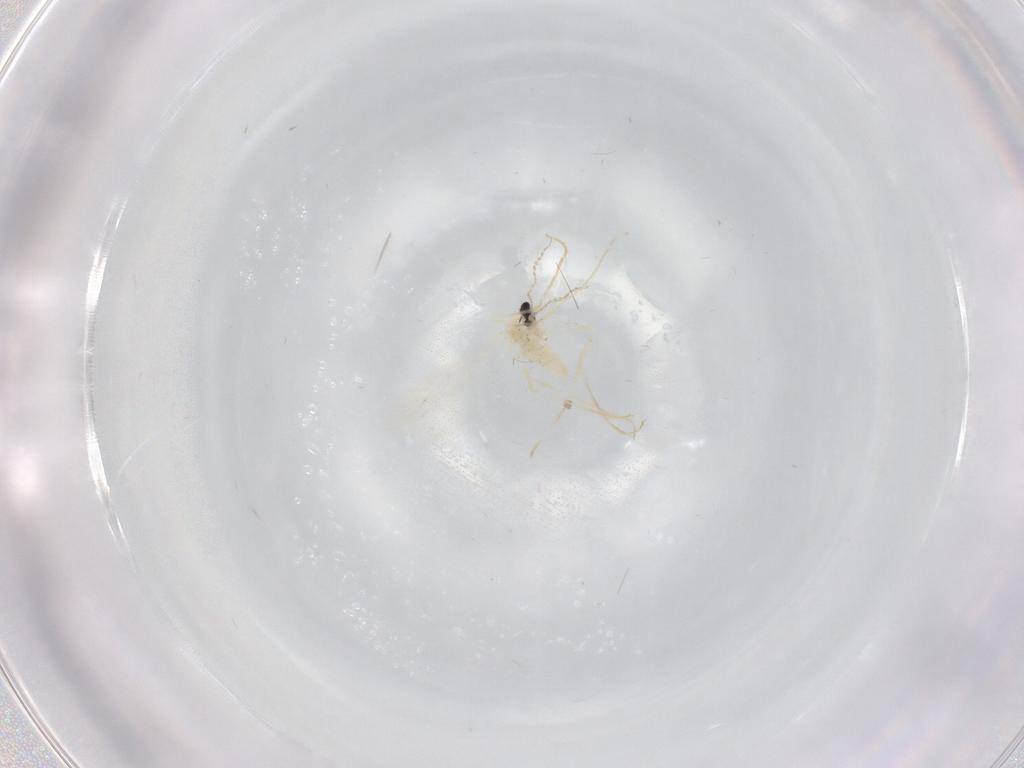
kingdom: Animalia
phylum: Arthropoda
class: Insecta
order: Diptera
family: Cecidomyiidae
